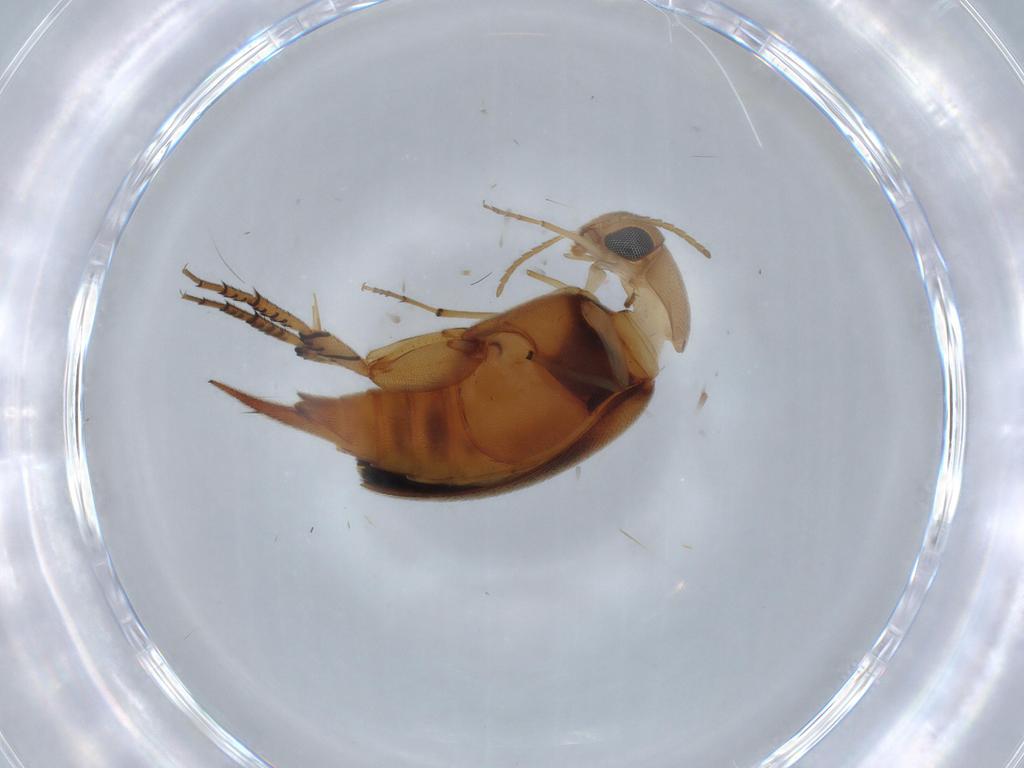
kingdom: Animalia
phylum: Arthropoda
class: Insecta
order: Coleoptera
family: Mordellidae
